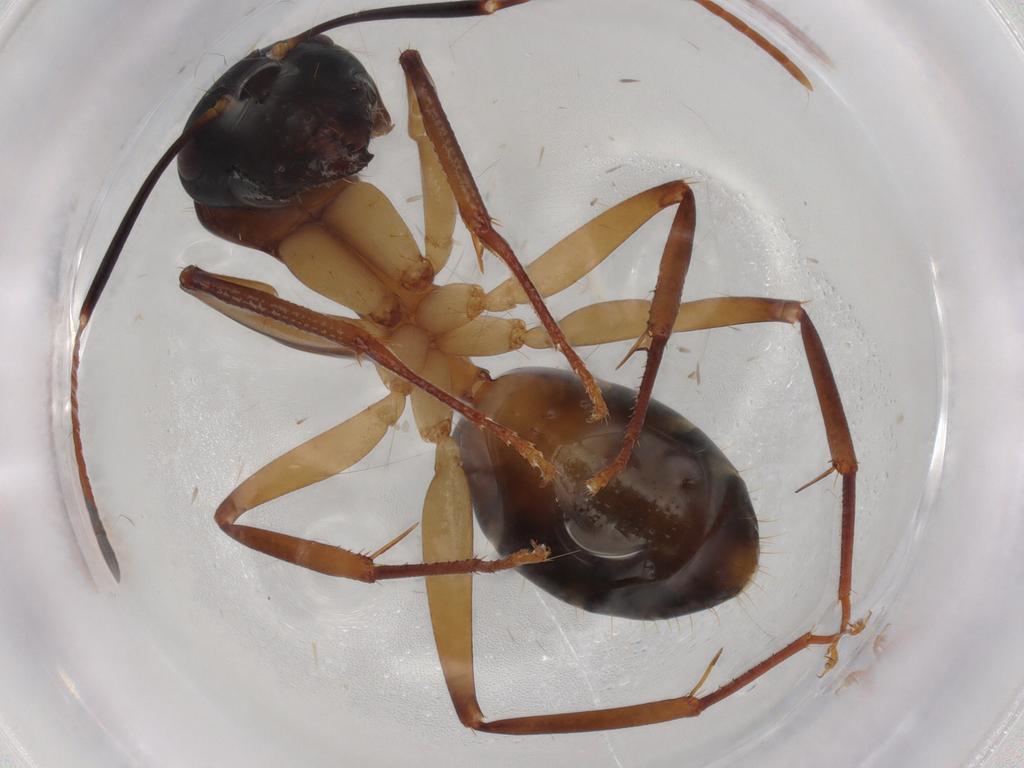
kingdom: Animalia
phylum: Arthropoda
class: Insecta
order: Hymenoptera
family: Formicidae
